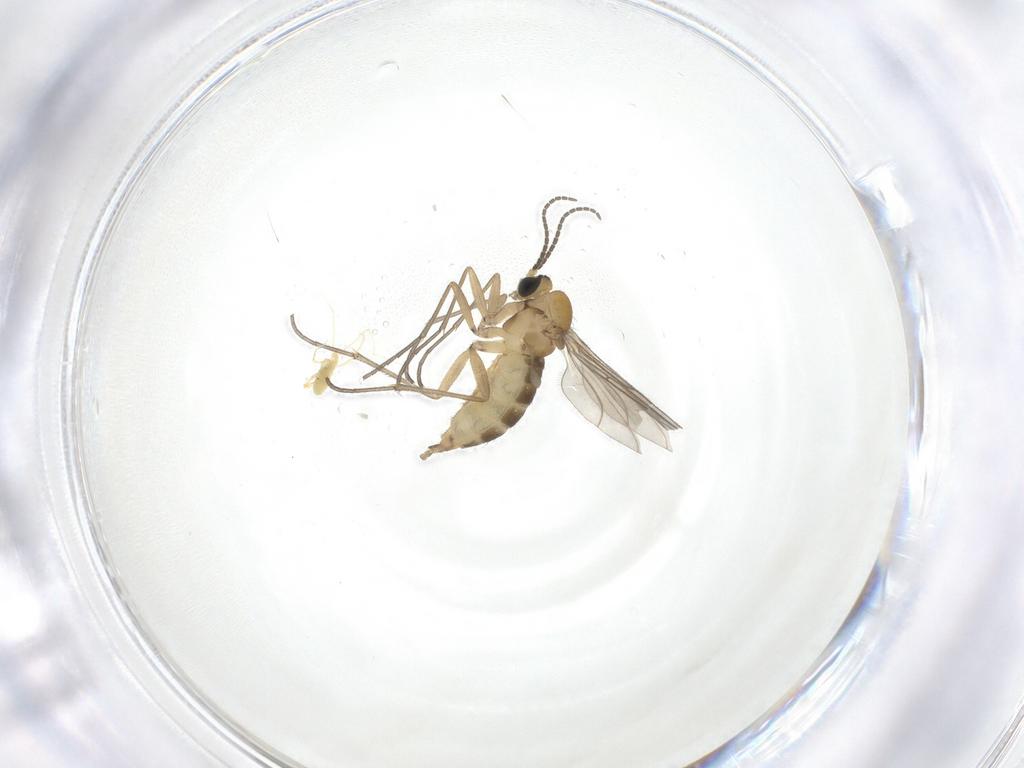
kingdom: Animalia
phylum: Arthropoda
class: Insecta
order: Diptera
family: Sciaridae
